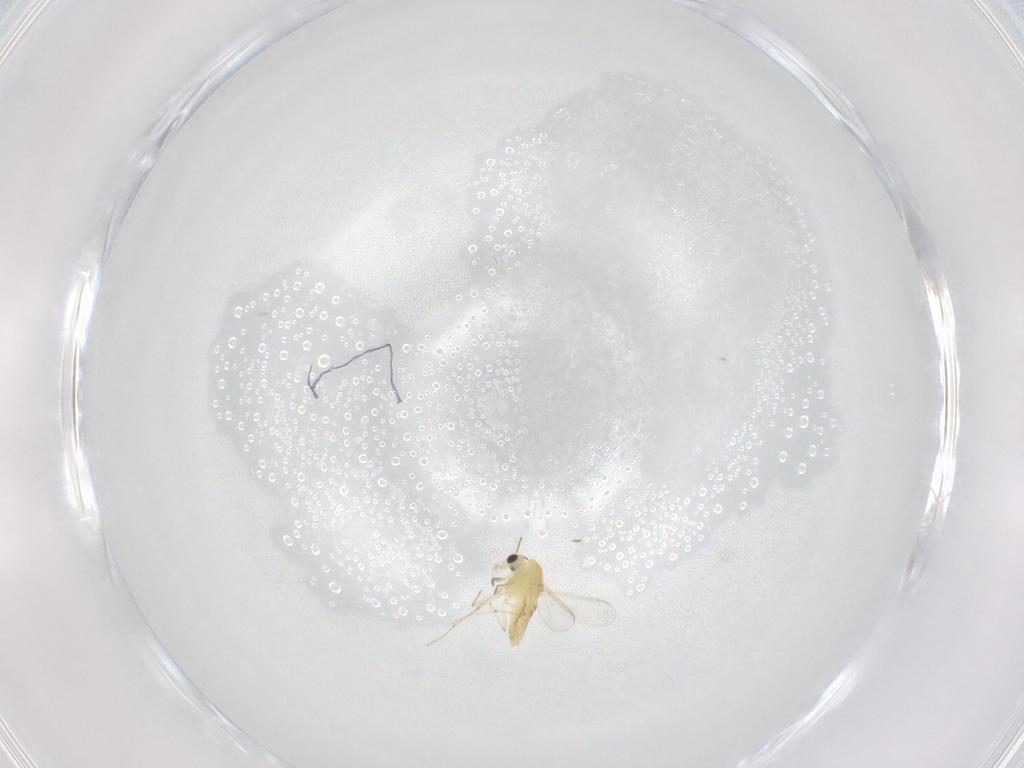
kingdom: Animalia
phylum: Arthropoda
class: Insecta
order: Diptera
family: Chironomidae
